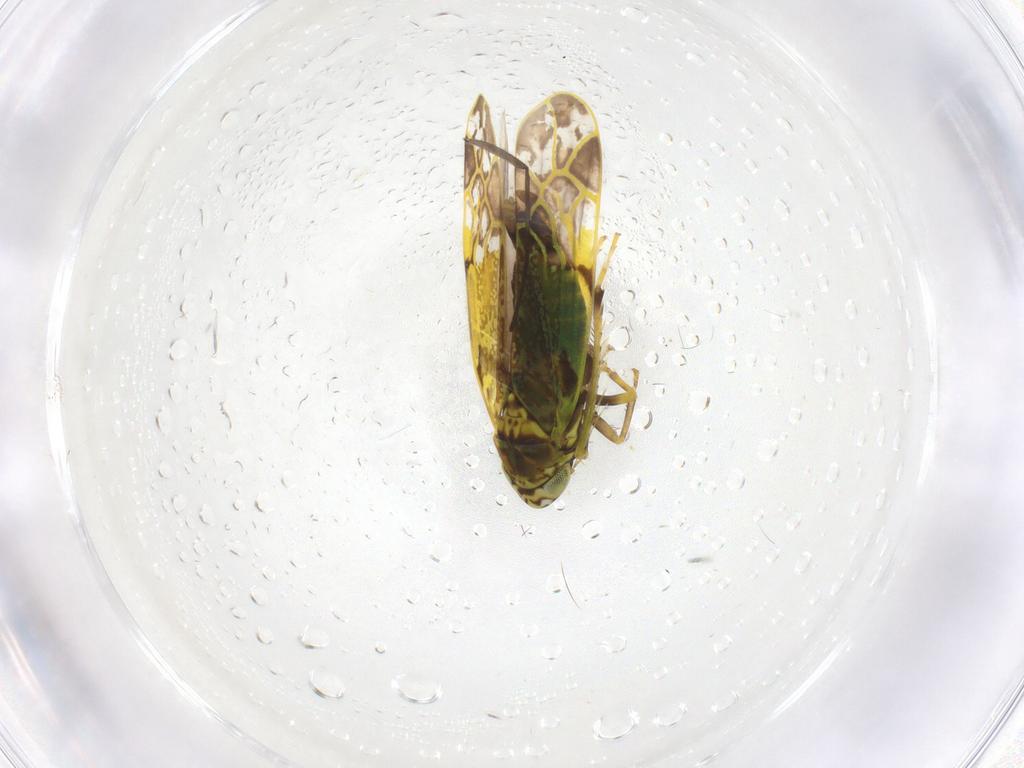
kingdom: Animalia
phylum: Arthropoda
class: Insecta
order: Hemiptera
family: Cicadellidae
